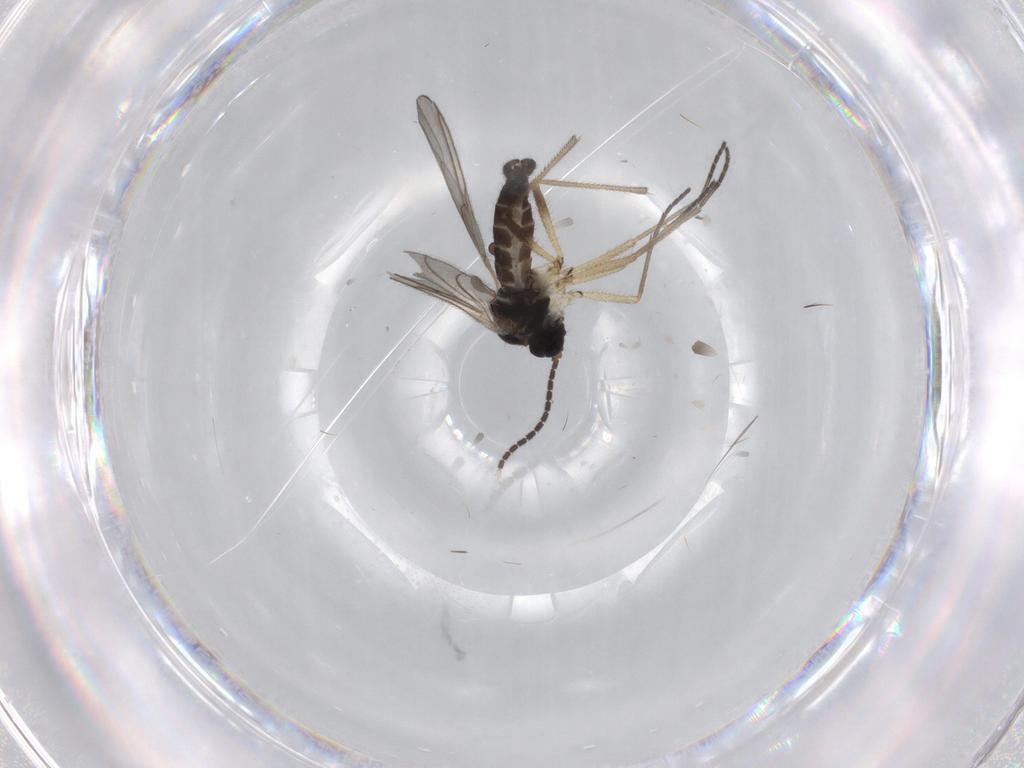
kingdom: Animalia
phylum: Arthropoda
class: Insecta
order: Diptera
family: Sciaridae
